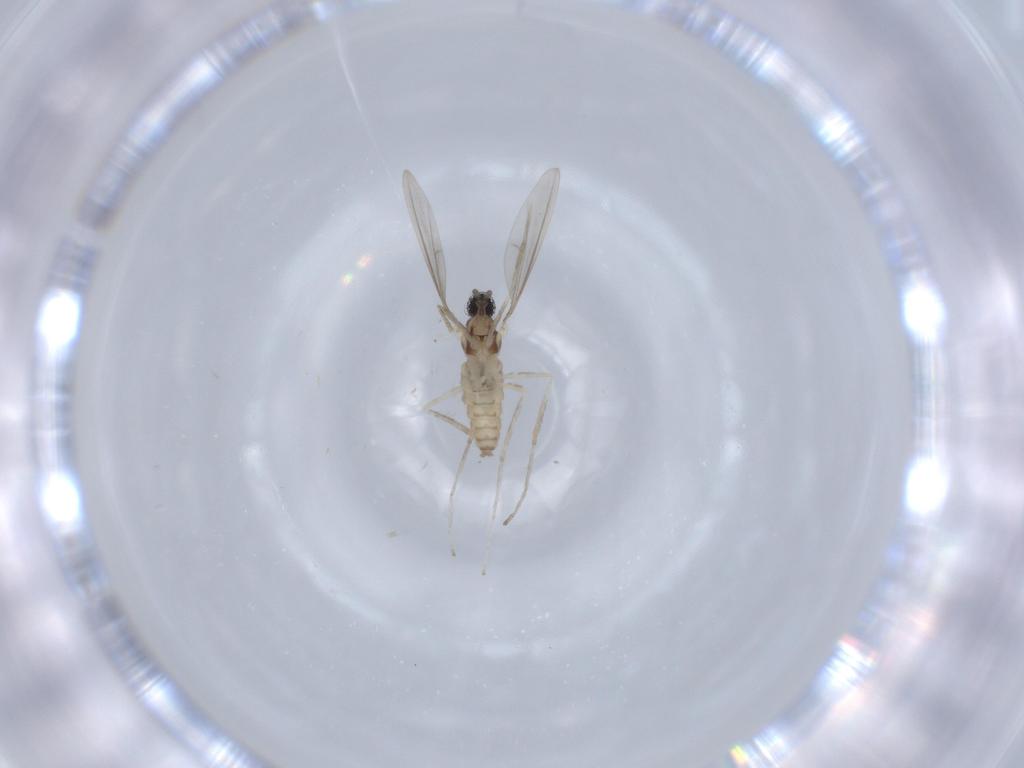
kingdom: Animalia
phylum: Arthropoda
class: Insecta
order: Diptera
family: Cecidomyiidae
